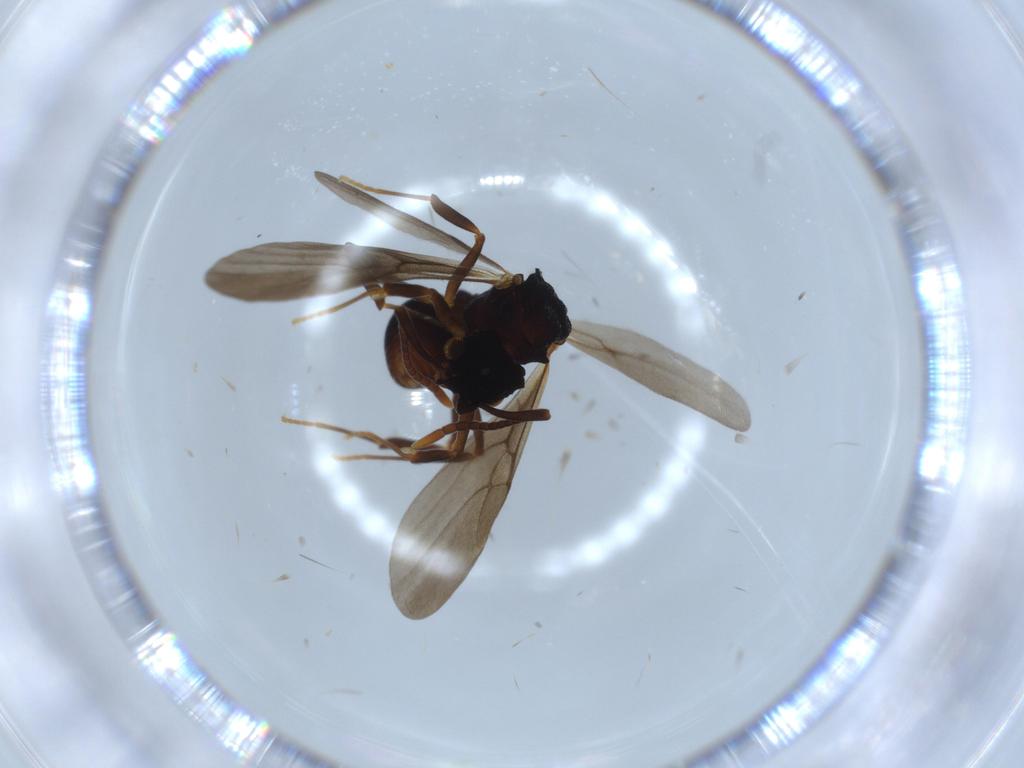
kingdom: Animalia
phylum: Arthropoda
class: Insecta
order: Hymenoptera
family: Formicidae
